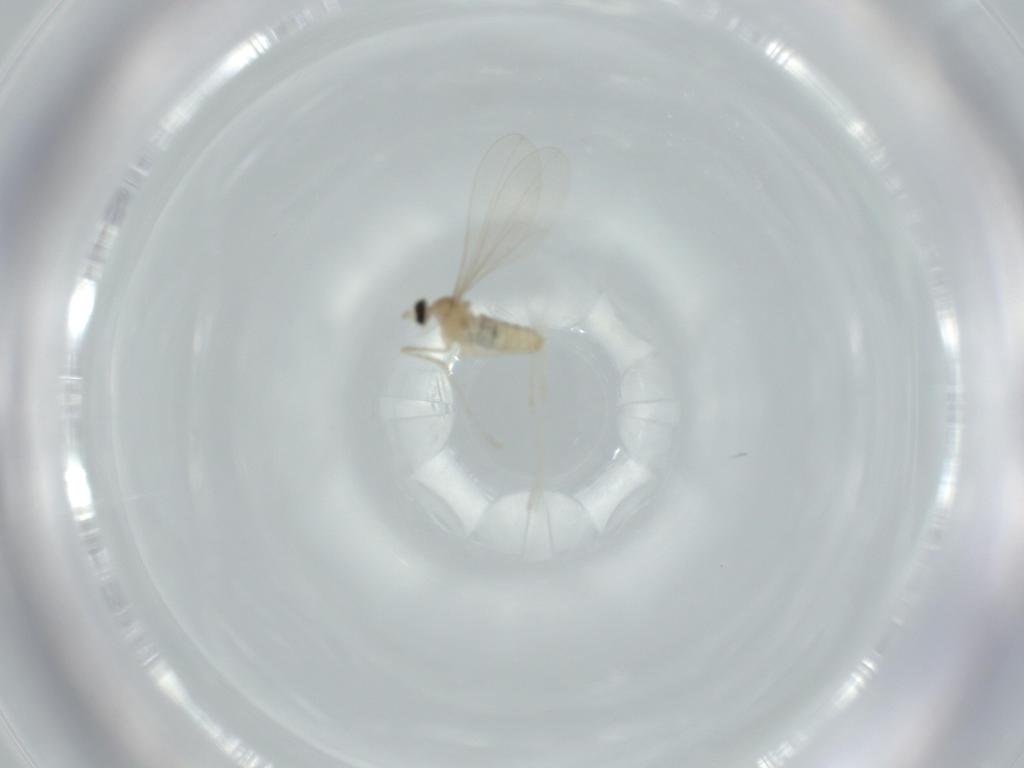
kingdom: Animalia
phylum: Arthropoda
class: Insecta
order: Diptera
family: Cecidomyiidae
